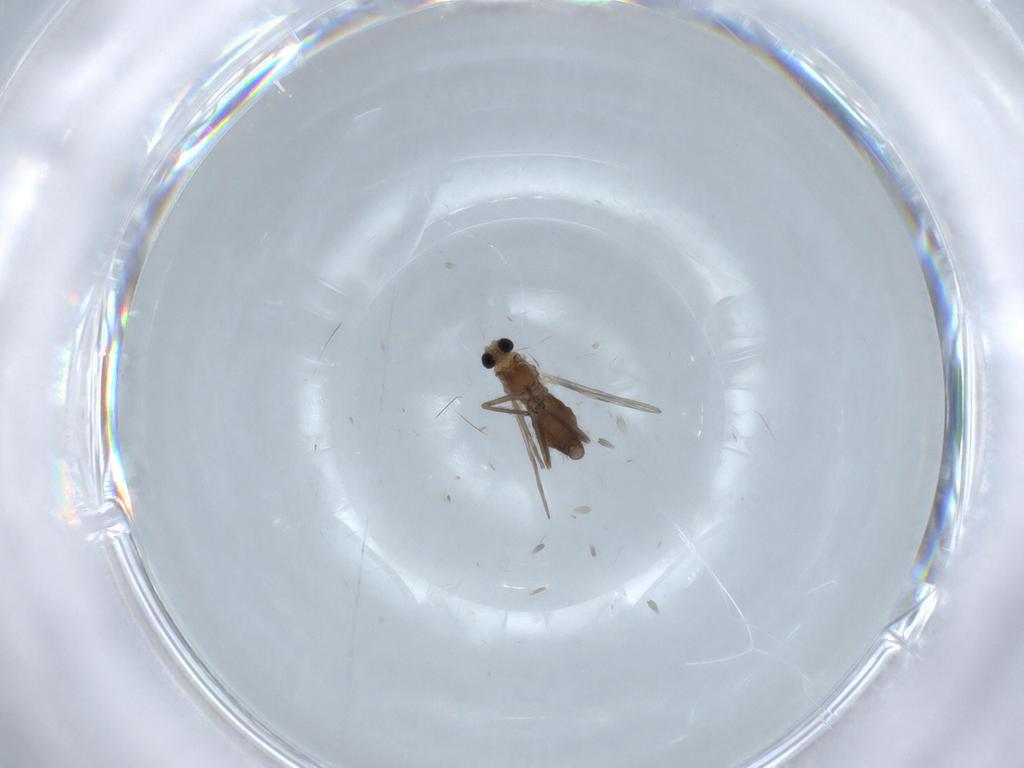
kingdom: Animalia
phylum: Arthropoda
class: Insecta
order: Diptera
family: Chironomidae
